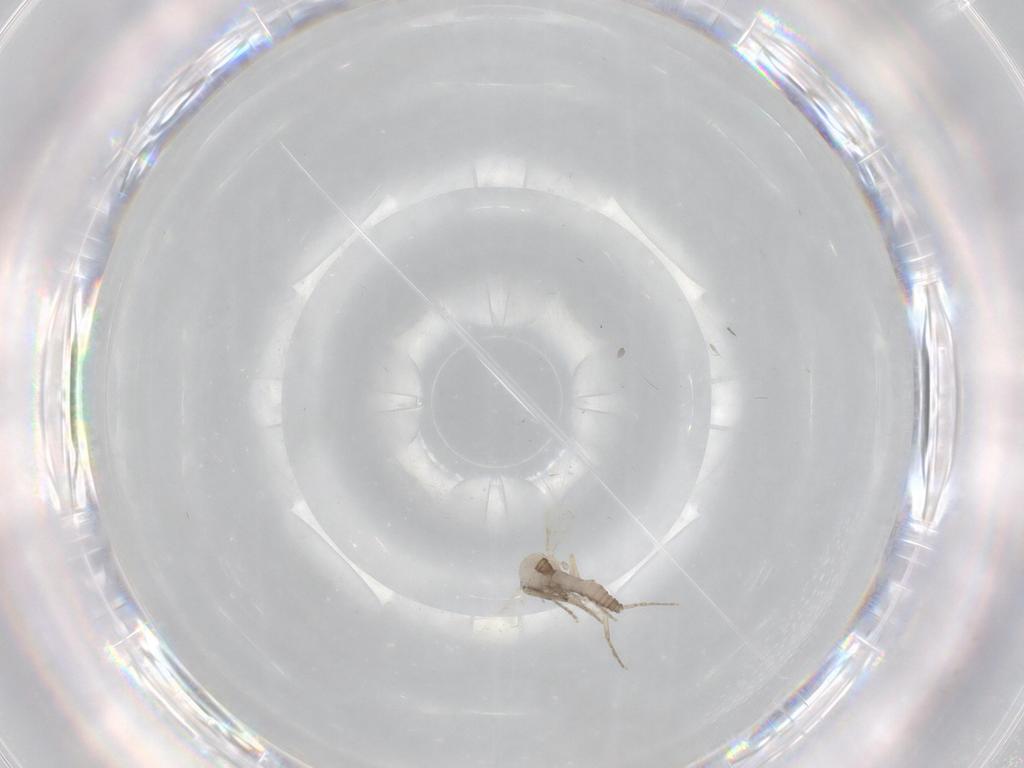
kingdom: Animalia
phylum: Arthropoda
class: Insecta
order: Diptera
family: Ceratopogonidae
